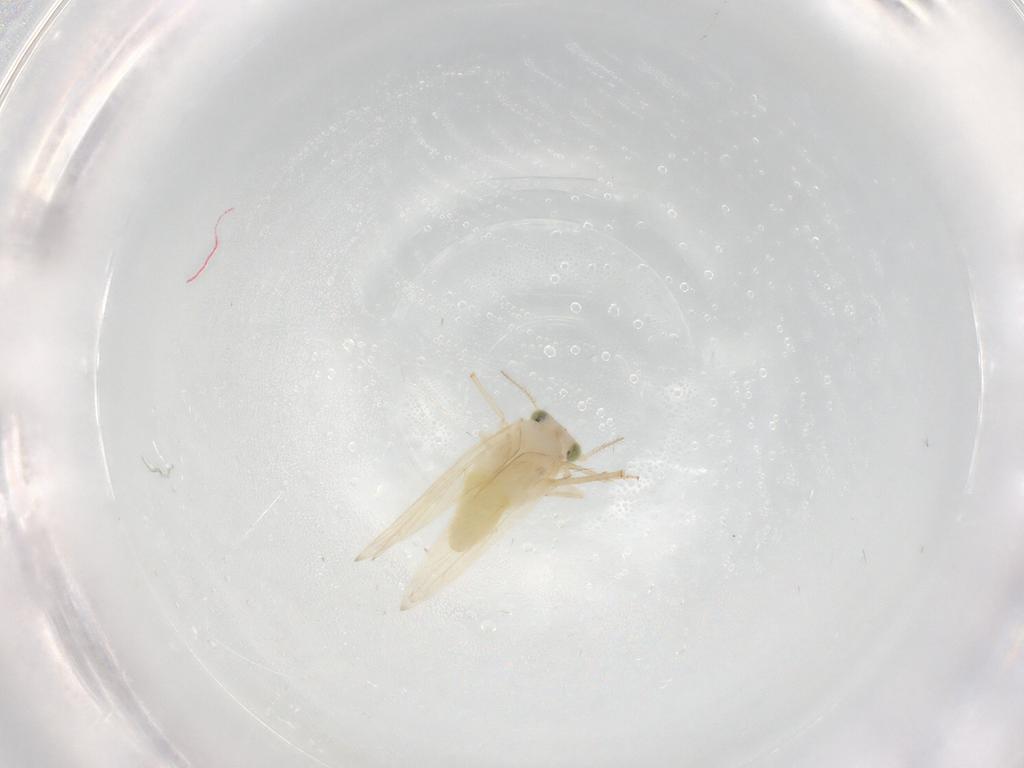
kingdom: Animalia
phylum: Arthropoda
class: Insecta
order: Psocodea
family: Lepidopsocidae
